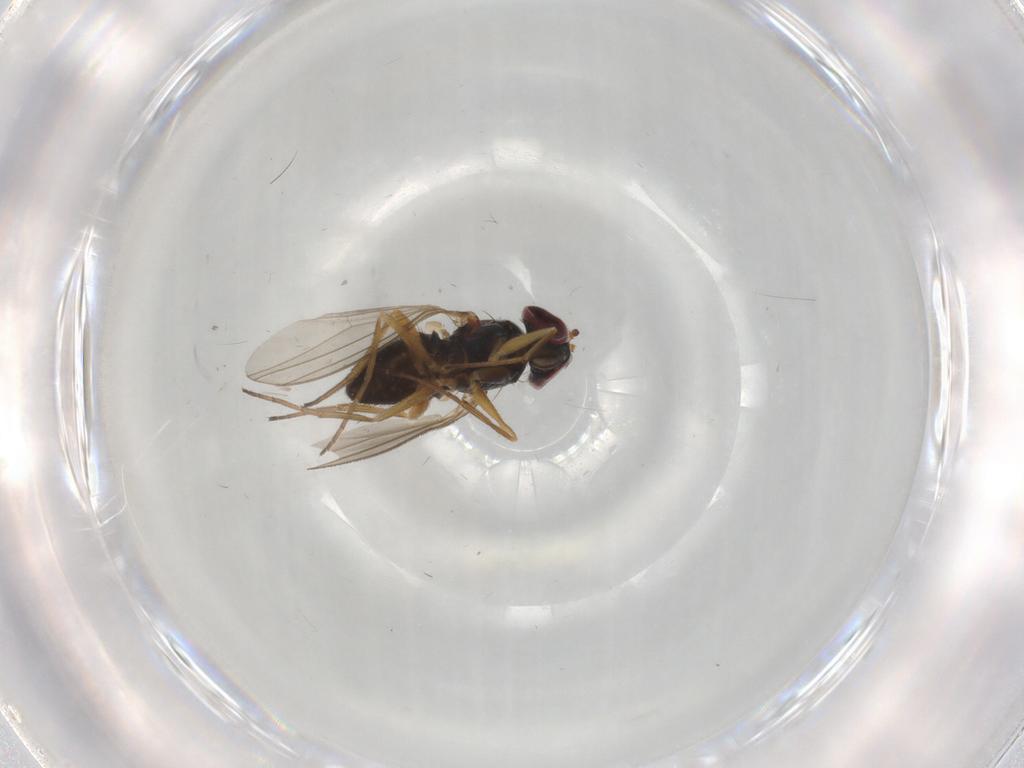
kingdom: Animalia
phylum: Arthropoda
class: Insecta
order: Diptera
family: Dolichopodidae
